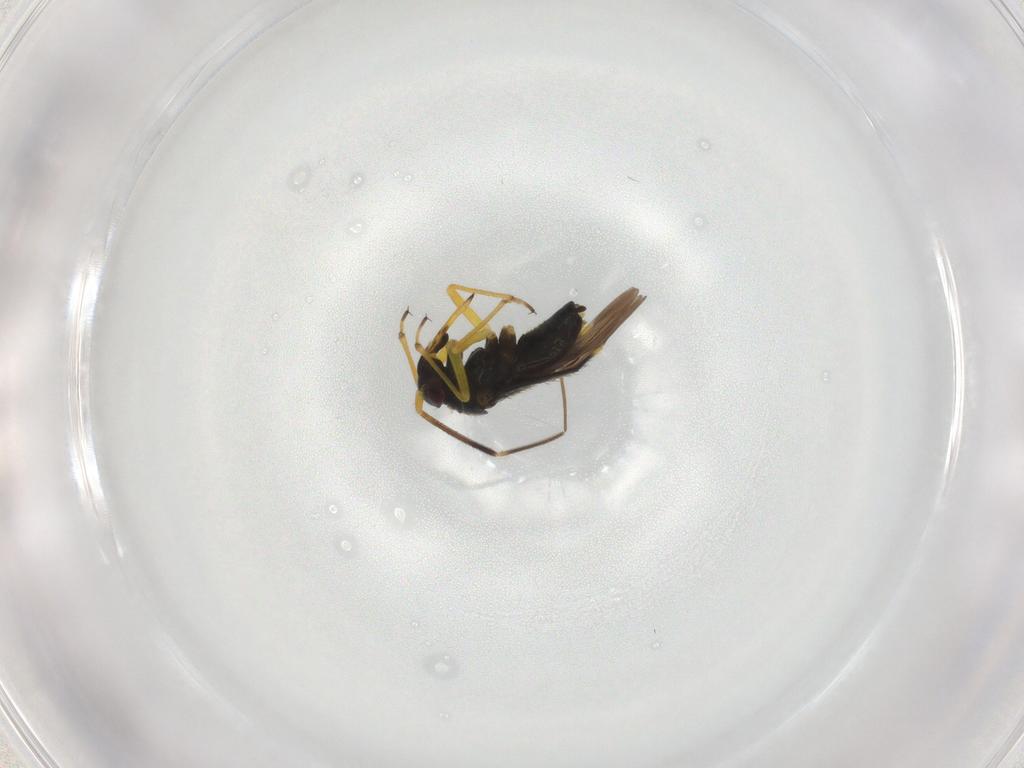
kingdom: Animalia
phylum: Arthropoda
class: Insecta
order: Hemiptera
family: Miridae
